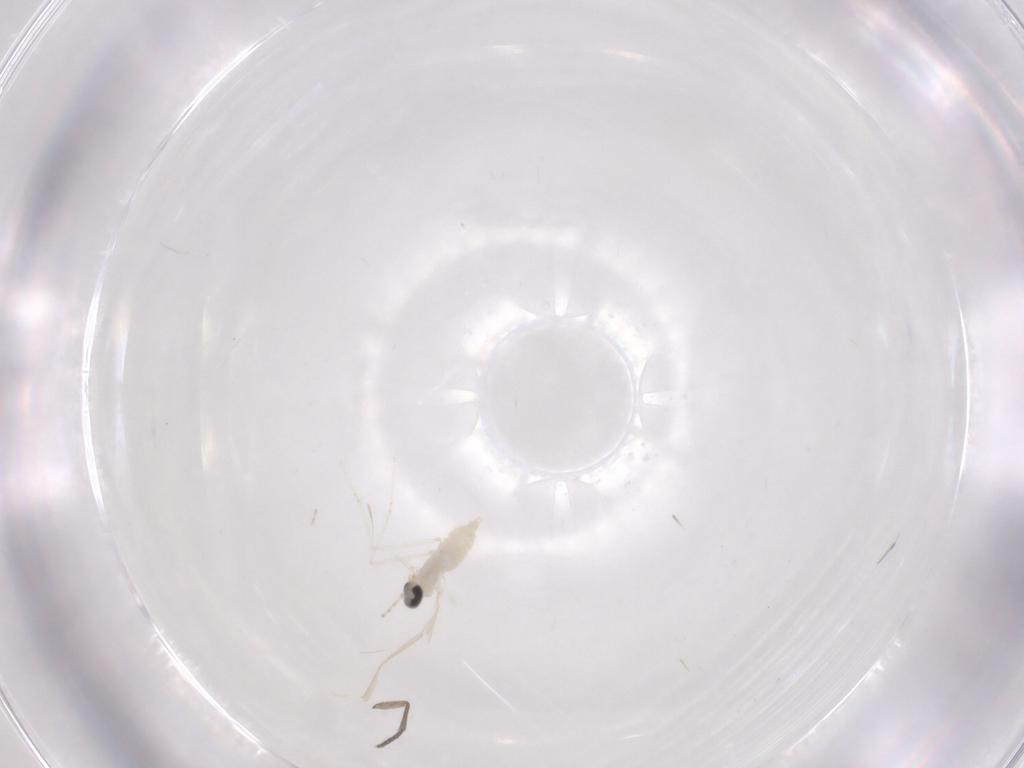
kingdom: Animalia
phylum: Arthropoda
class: Insecta
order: Diptera
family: Cecidomyiidae
